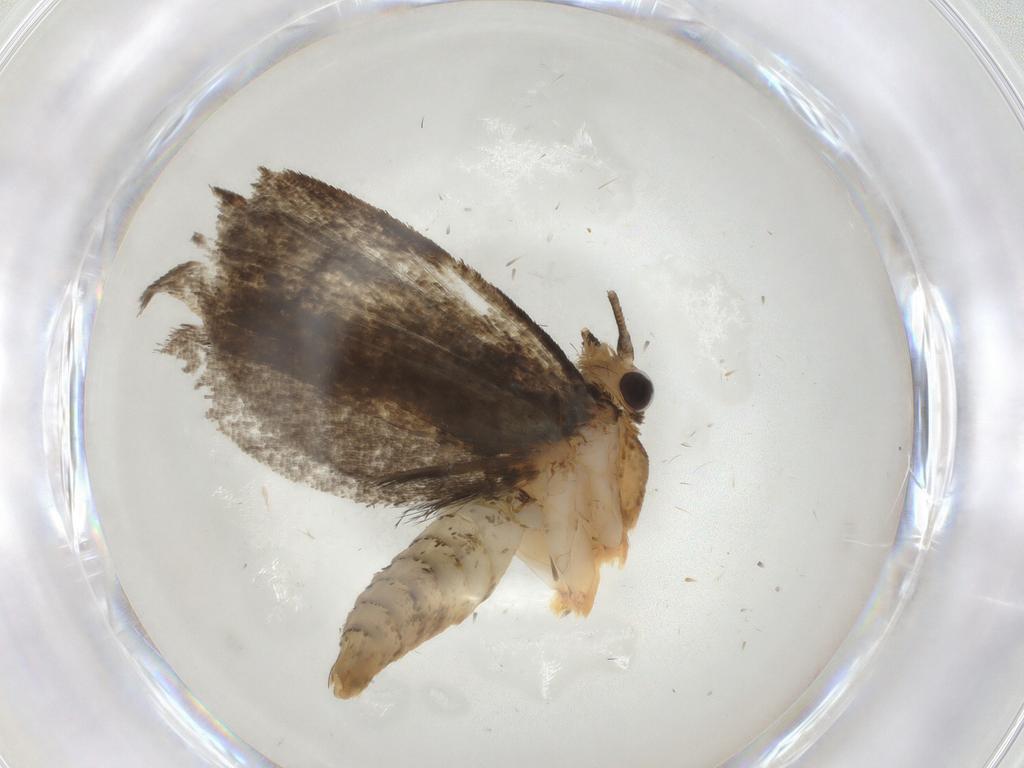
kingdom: Animalia
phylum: Arthropoda
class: Insecta
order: Lepidoptera
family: Tineidae
